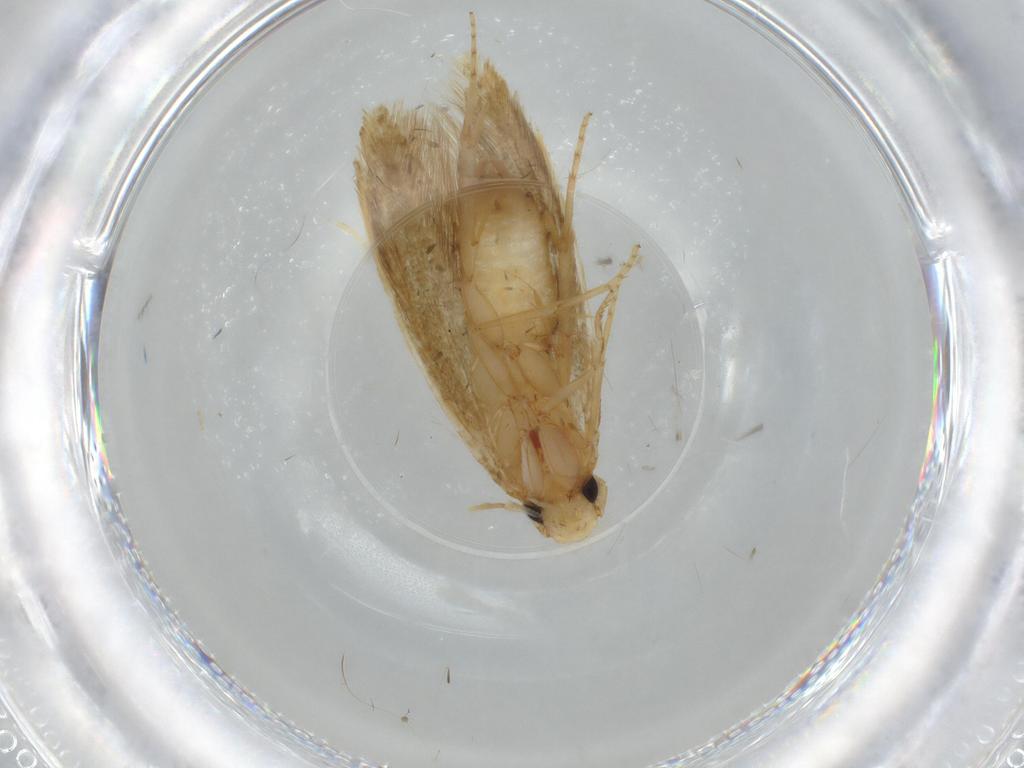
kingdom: Animalia
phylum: Arthropoda
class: Insecta
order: Lepidoptera
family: Tineidae
